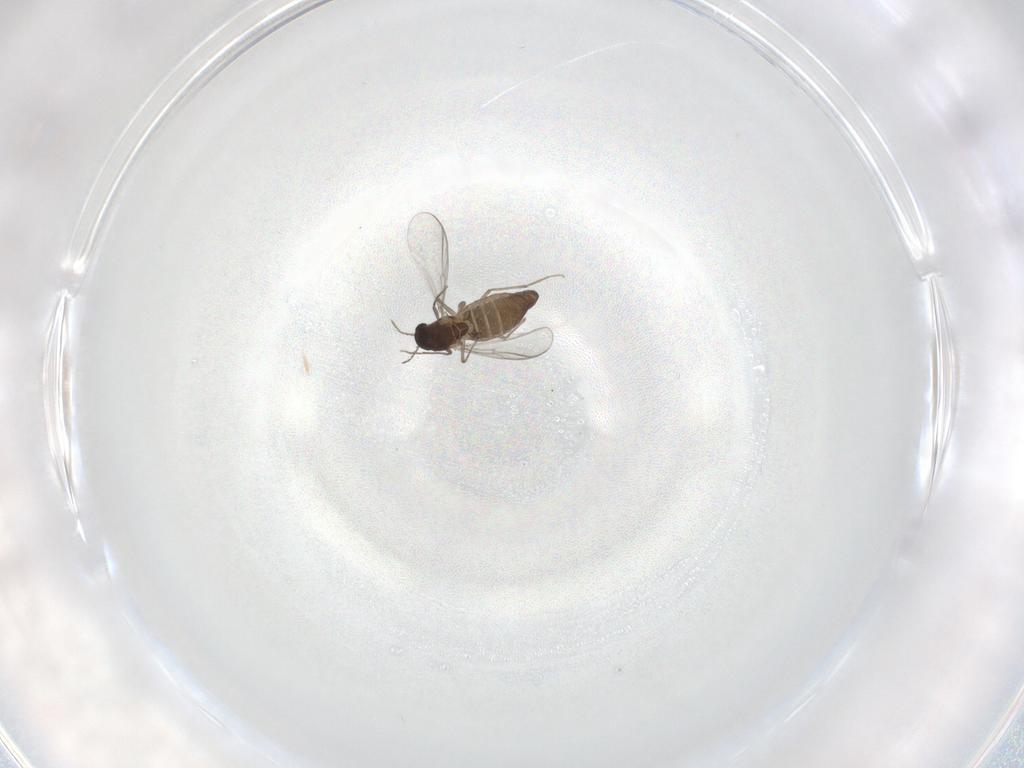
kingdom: Animalia
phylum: Arthropoda
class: Insecta
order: Diptera
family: Chironomidae
